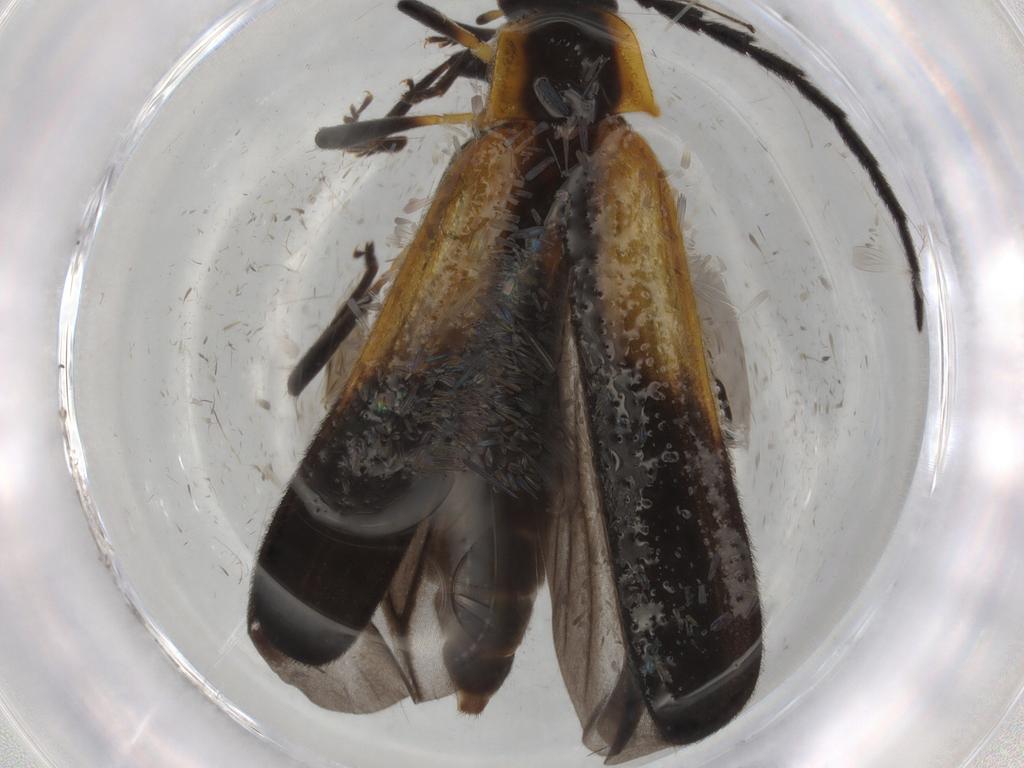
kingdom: Animalia
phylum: Arthropoda
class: Insecta
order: Coleoptera
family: Lycidae
